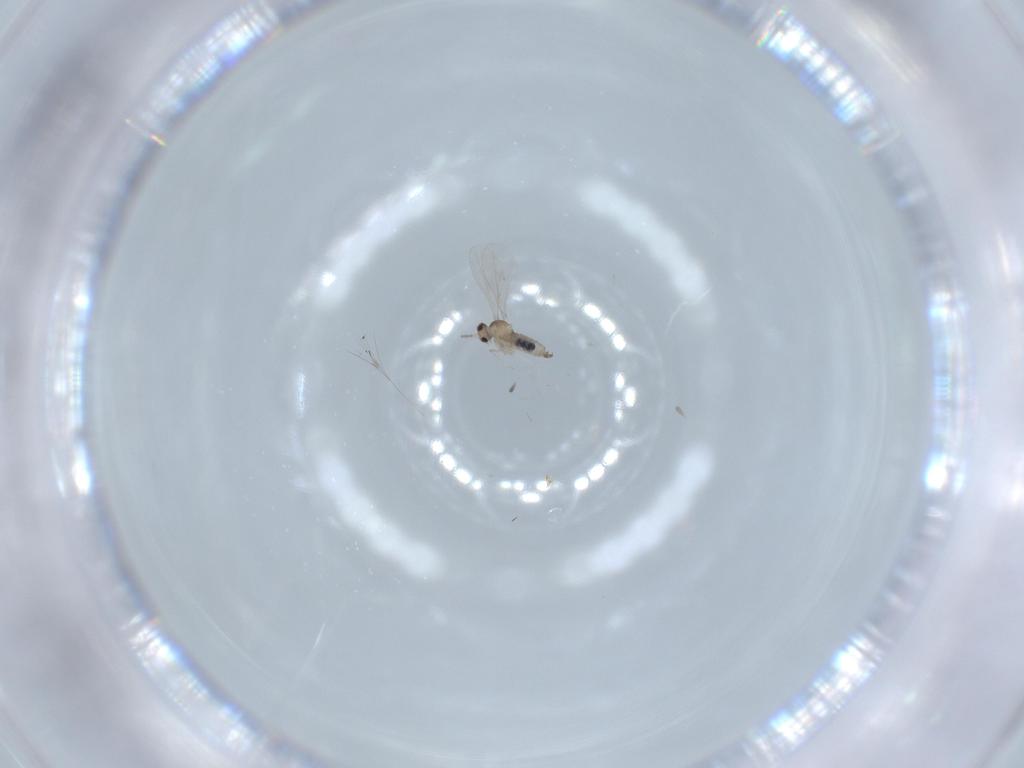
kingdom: Animalia
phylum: Arthropoda
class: Insecta
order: Diptera
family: Cecidomyiidae
